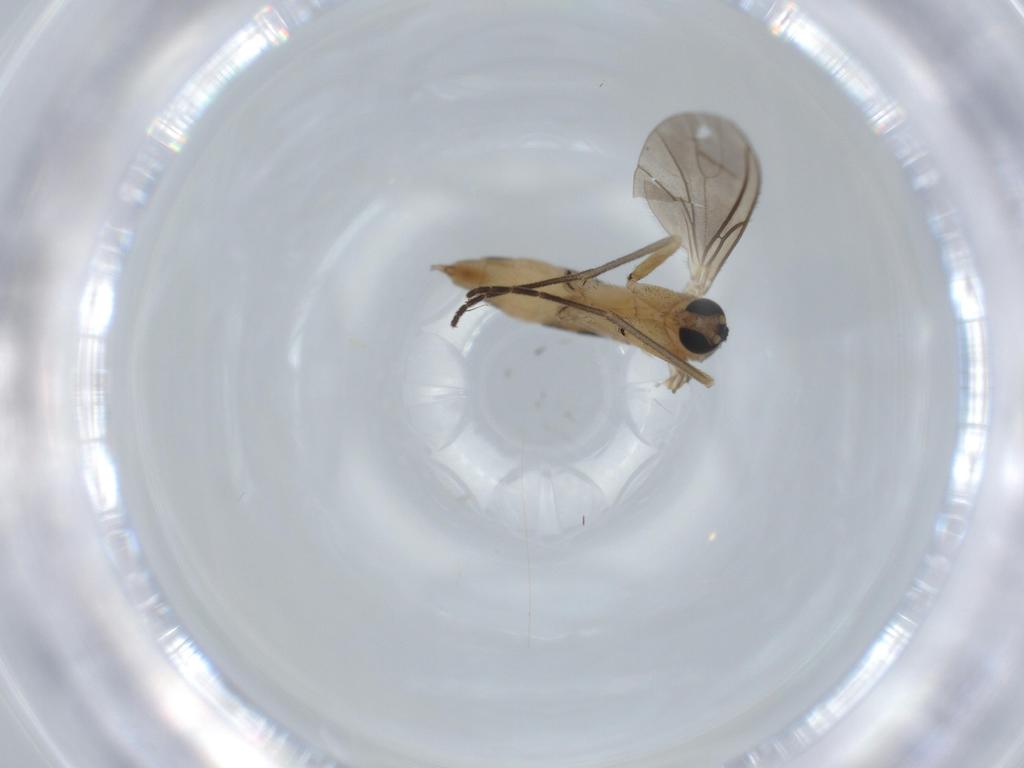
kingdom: Animalia
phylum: Arthropoda
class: Insecta
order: Diptera
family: Sciaridae
